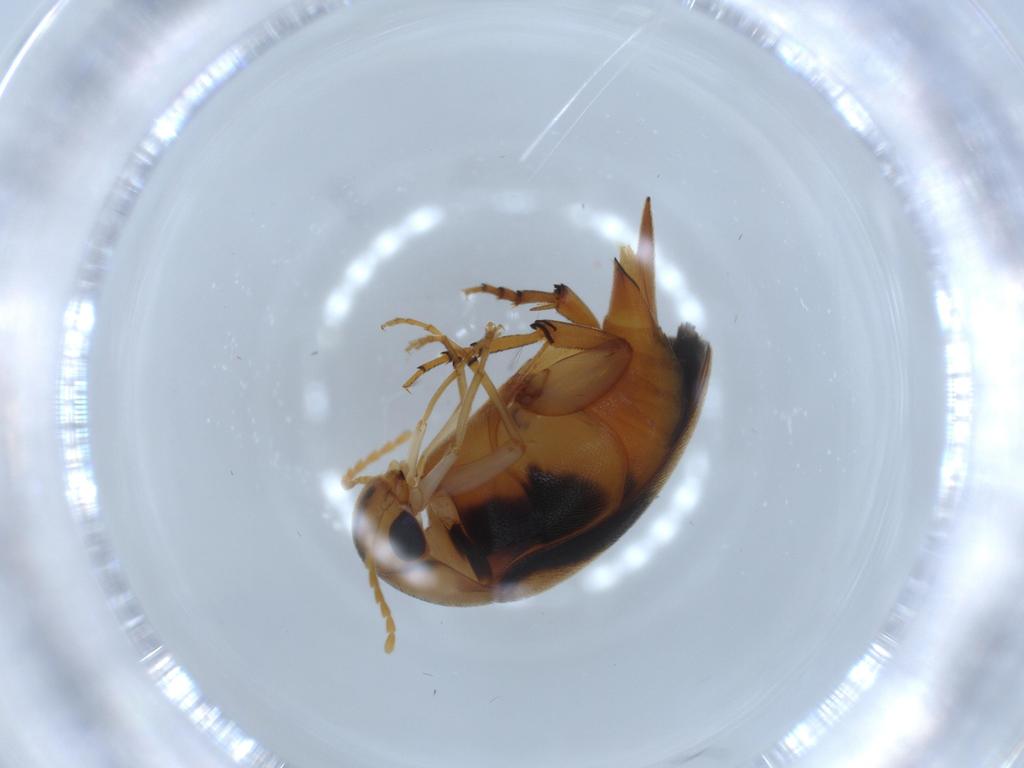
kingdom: Animalia
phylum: Arthropoda
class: Insecta
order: Coleoptera
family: Mordellidae
